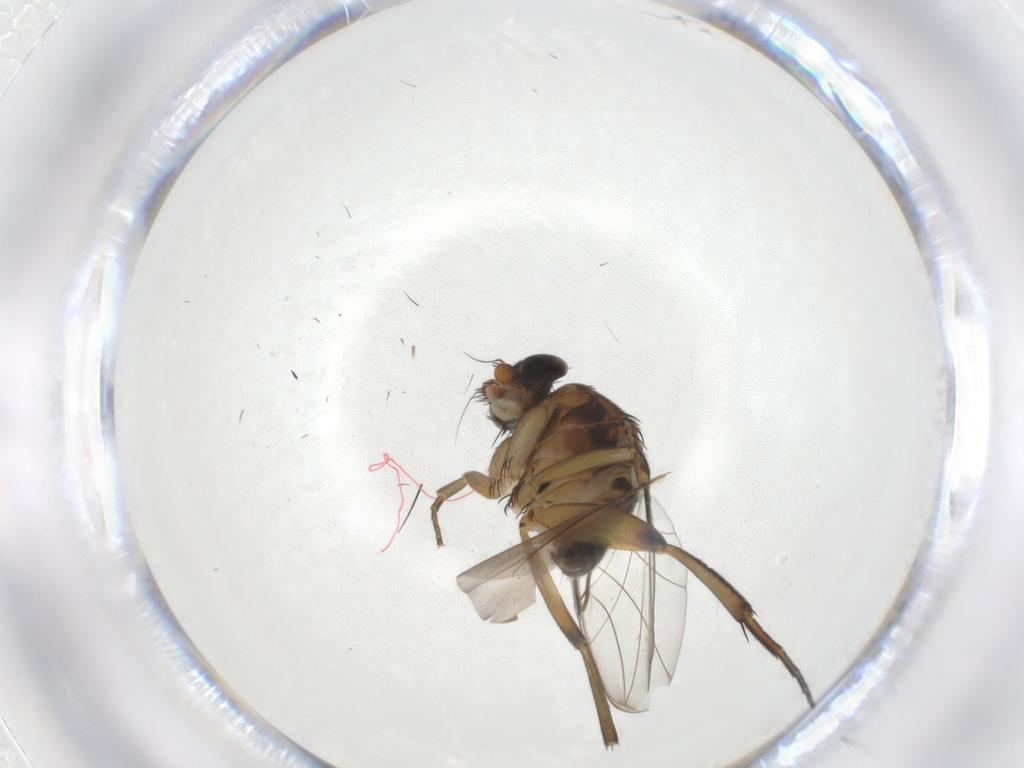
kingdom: Animalia
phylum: Arthropoda
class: Insecta
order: Diptera
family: Phoridae
